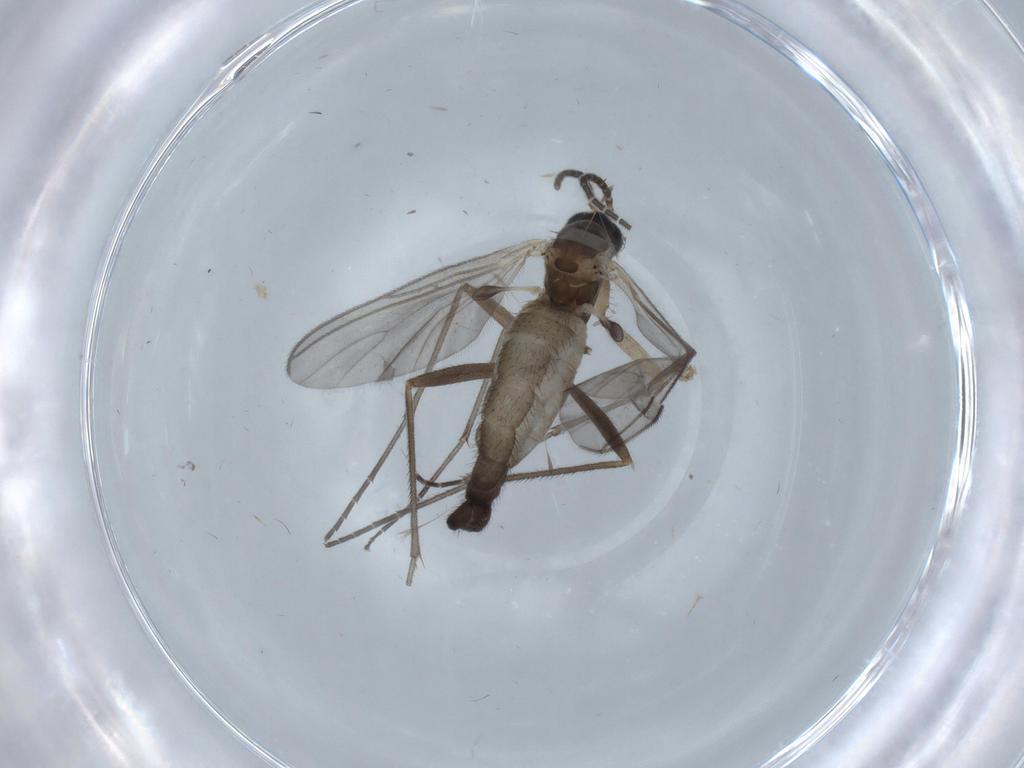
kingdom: Animalia
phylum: Arthropoda
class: Insecta
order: Diptera
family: Sciaridae
